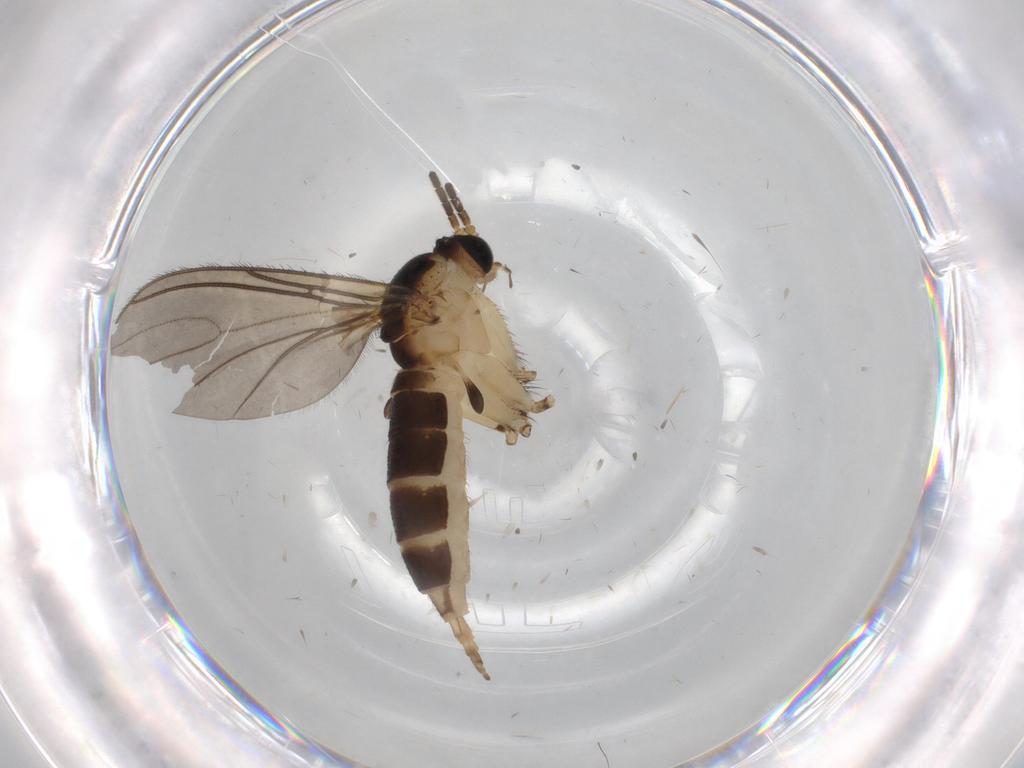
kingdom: Animalia
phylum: Arthropoda
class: Insecta
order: Diptera
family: Sciaridae
